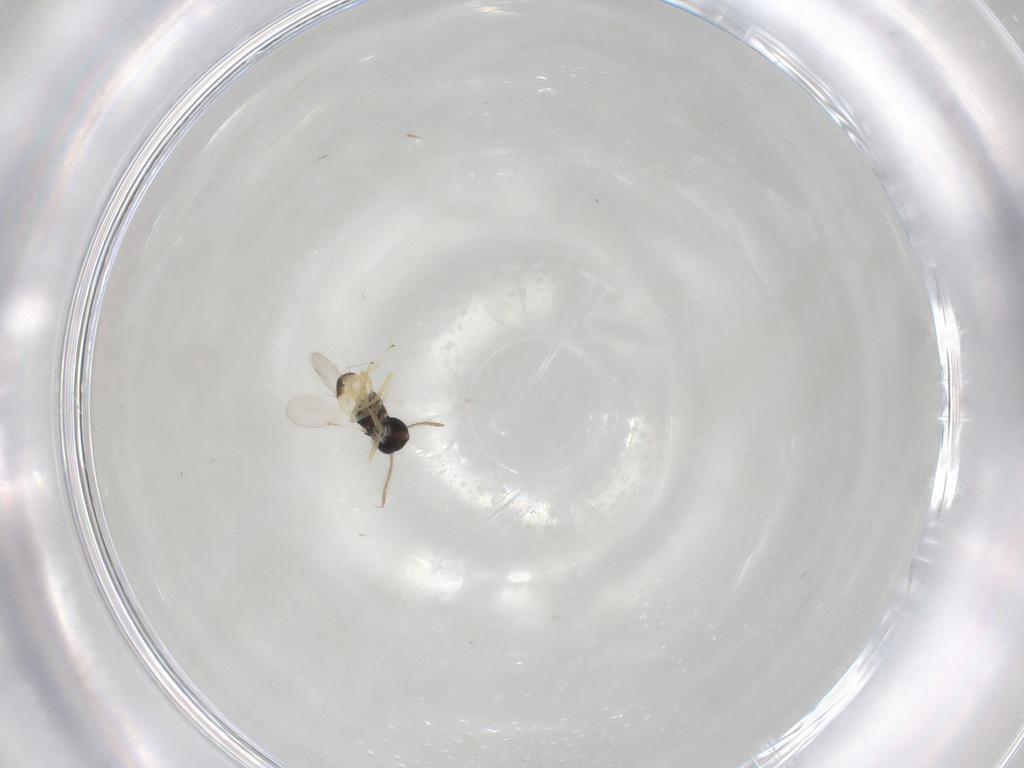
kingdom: Animalia
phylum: Arthropoda
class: Insecta
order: Hymenoptera
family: Encyrtidae
